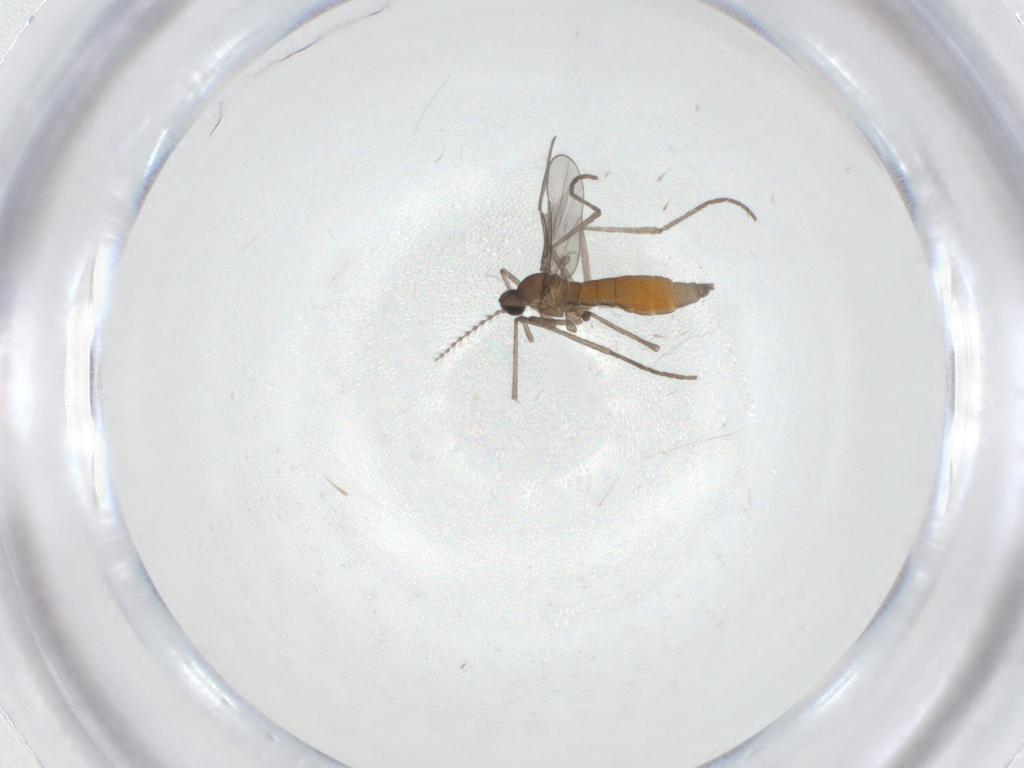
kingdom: Animalia
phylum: Arthropoda
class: Insecta
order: Diptera
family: Cecidomyiidae
